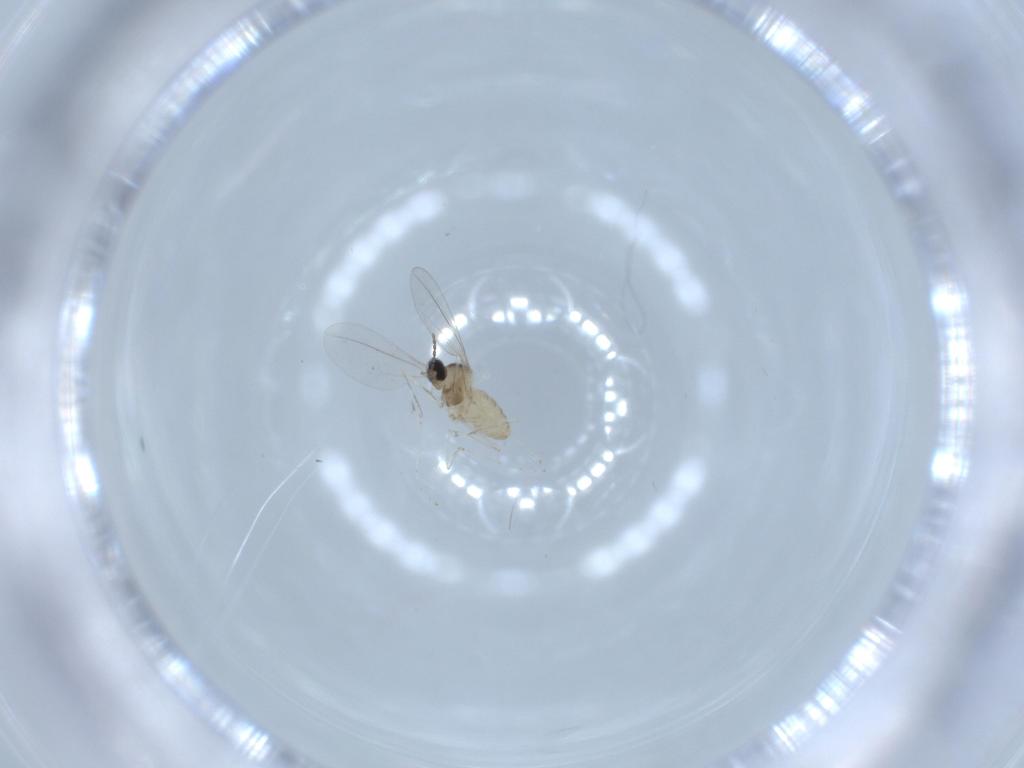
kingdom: Animalia
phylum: Arthropoda
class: Insecta
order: Diptera
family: Cecidomyiidae
